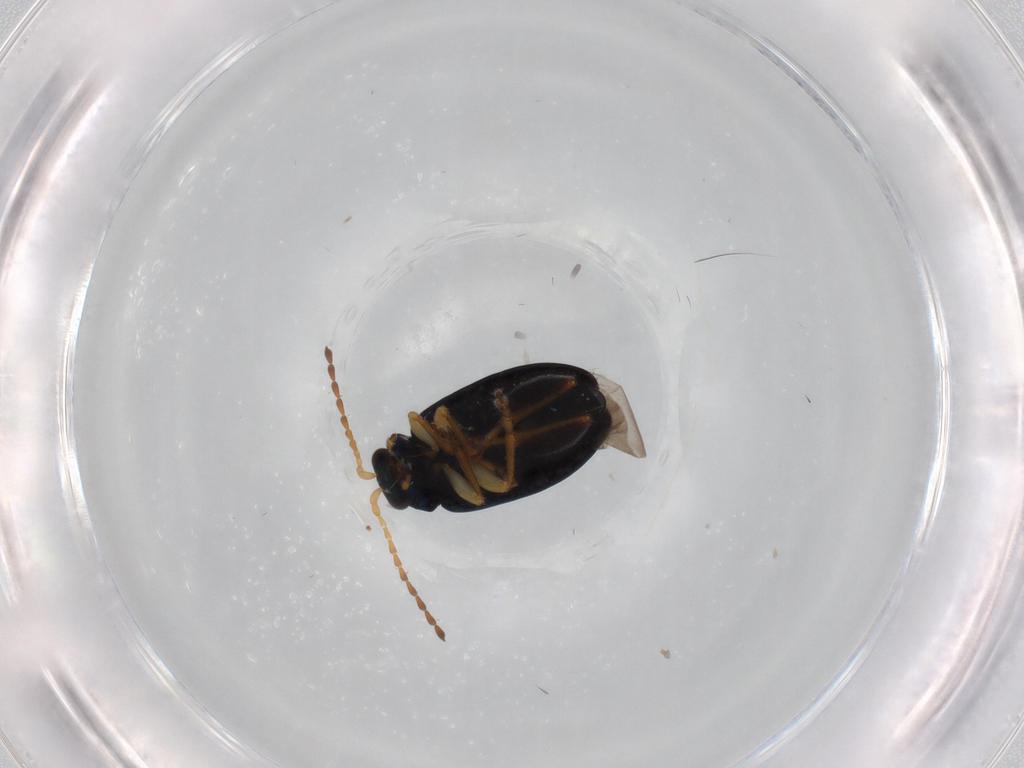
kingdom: Animalia
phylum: Arthropoda
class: Insecta
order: Coleoptera
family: Chrysomelidae
